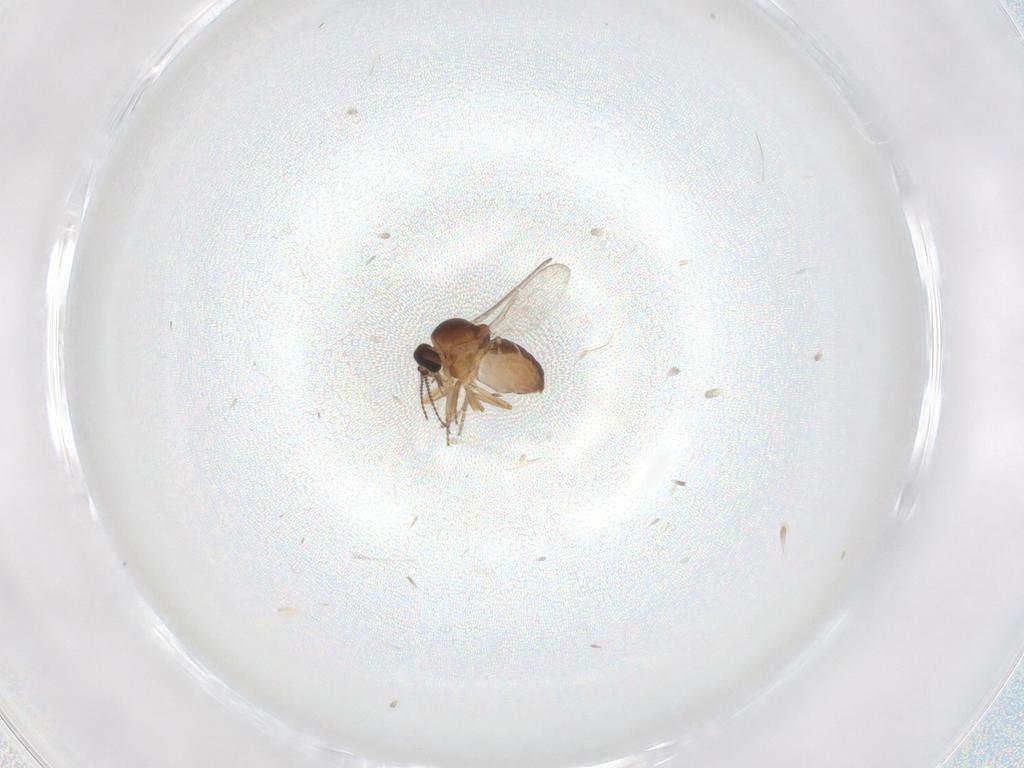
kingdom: Animalia
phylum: Arthropoda
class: Insecta
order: Diptera
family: Ceratopogonidae
